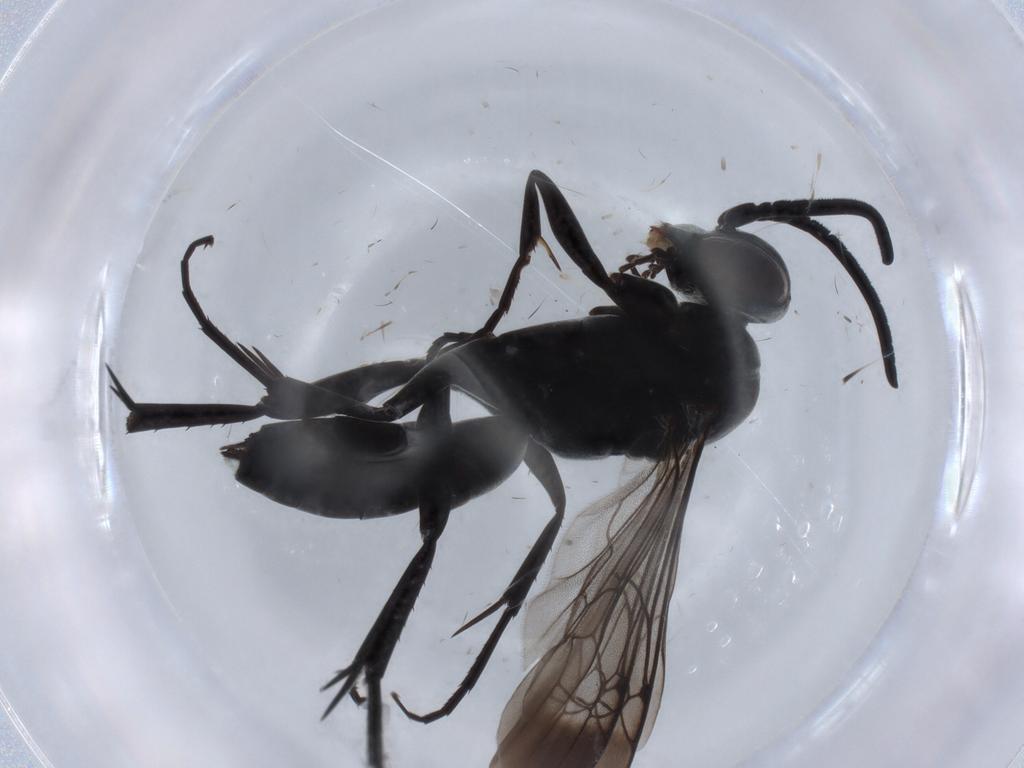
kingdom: Animalia
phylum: Arthropoda
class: Insecta
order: Hymenoptera
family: Pompilidae
